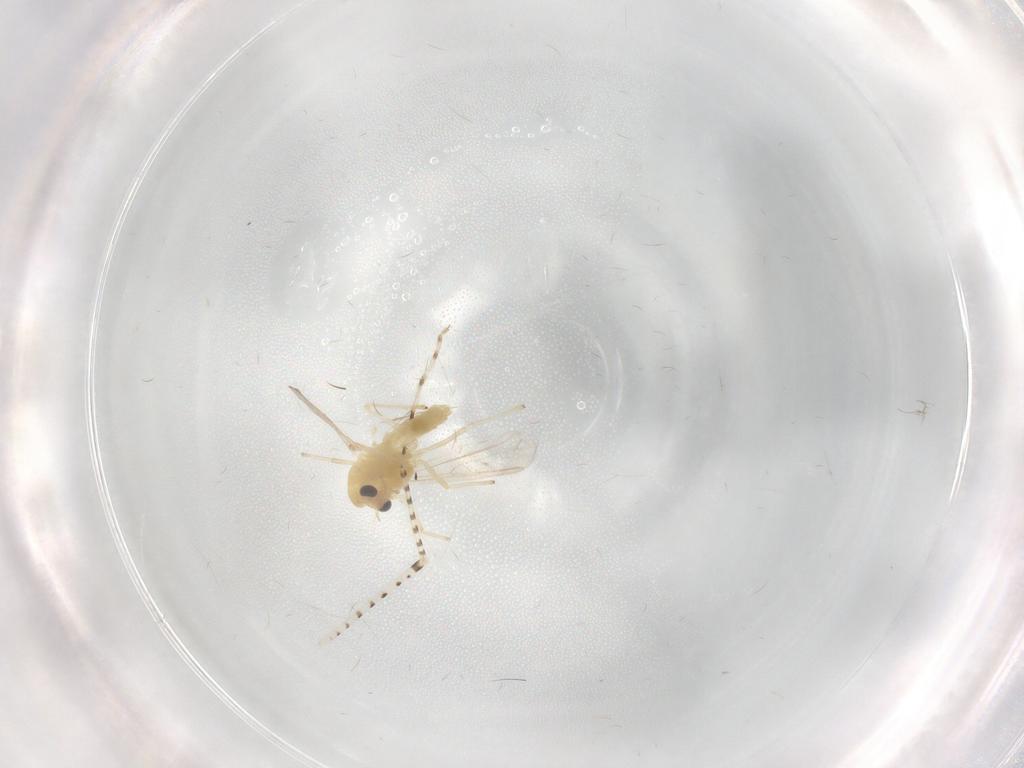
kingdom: Animalia
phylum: Arthropoda
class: Insecta
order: Diptera
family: Chironomidae
